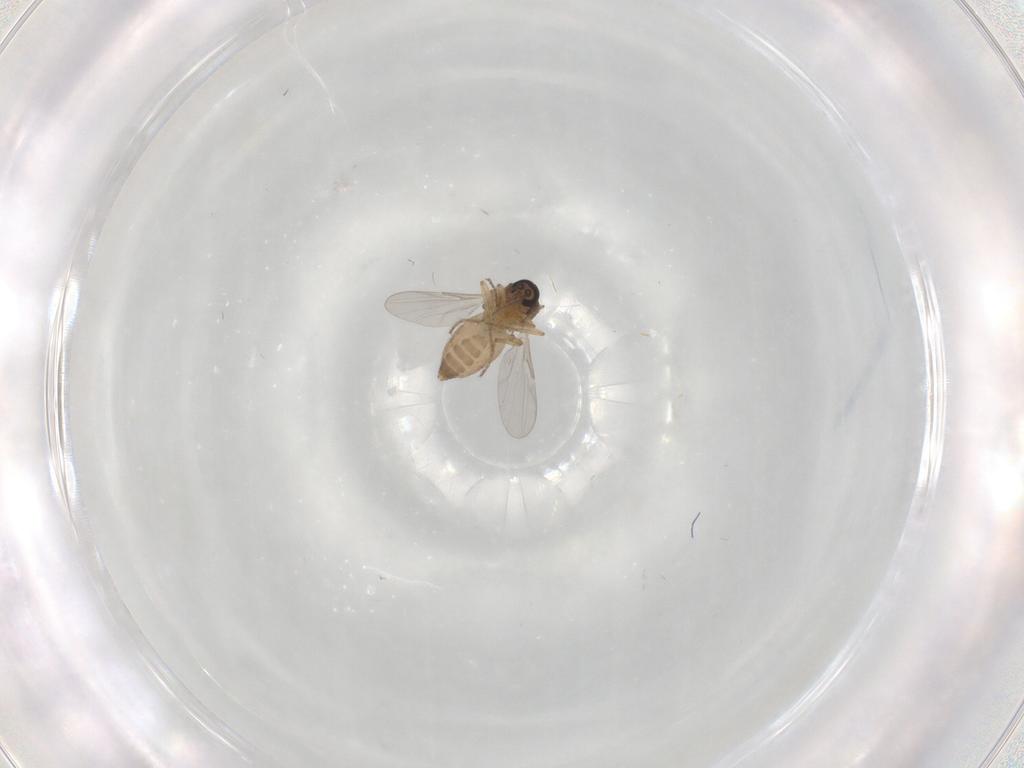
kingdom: Animalia
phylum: Arthropoda
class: Insecta
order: Diptera
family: Ceratopogonidae
